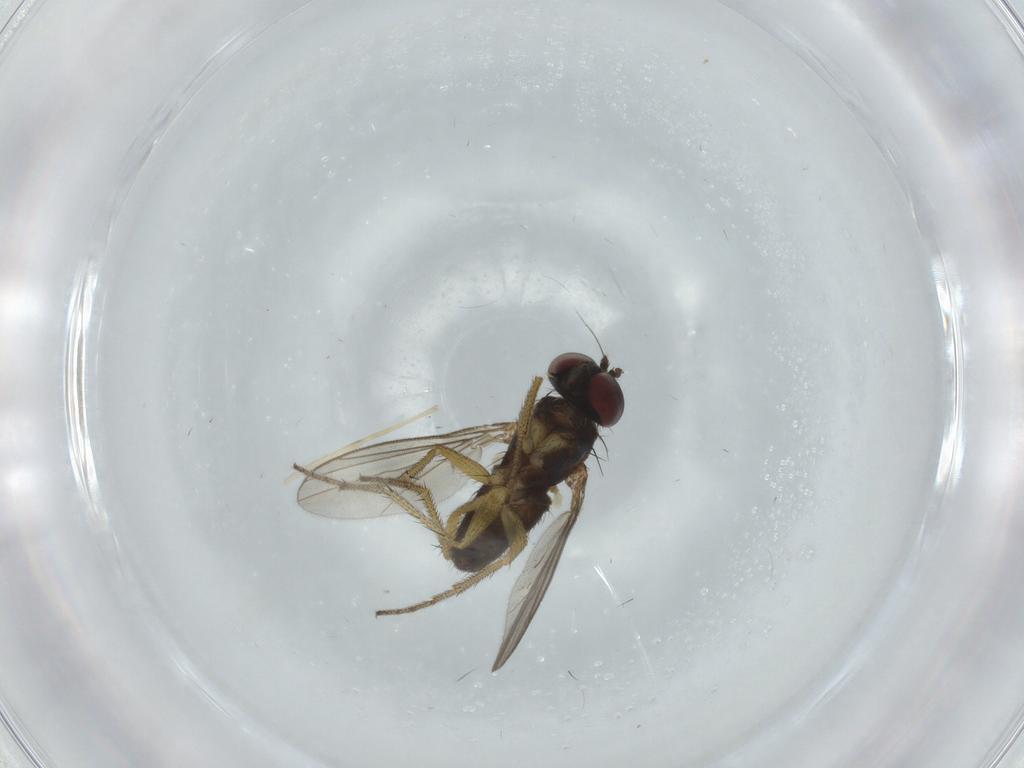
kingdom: Animalia
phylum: Arthropoda
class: Insecta
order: Diptera
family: Dolichopodidae
